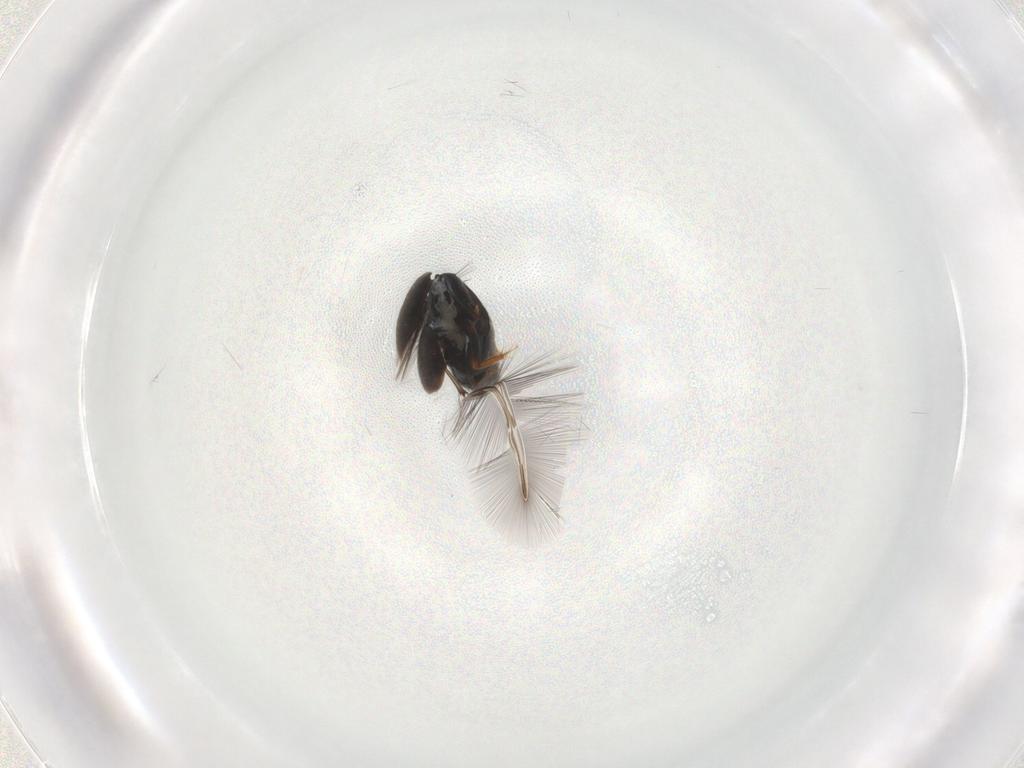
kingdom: Animalia
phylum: Arthropoda
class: Insecta
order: Coleoptera
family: Ptiliidae
